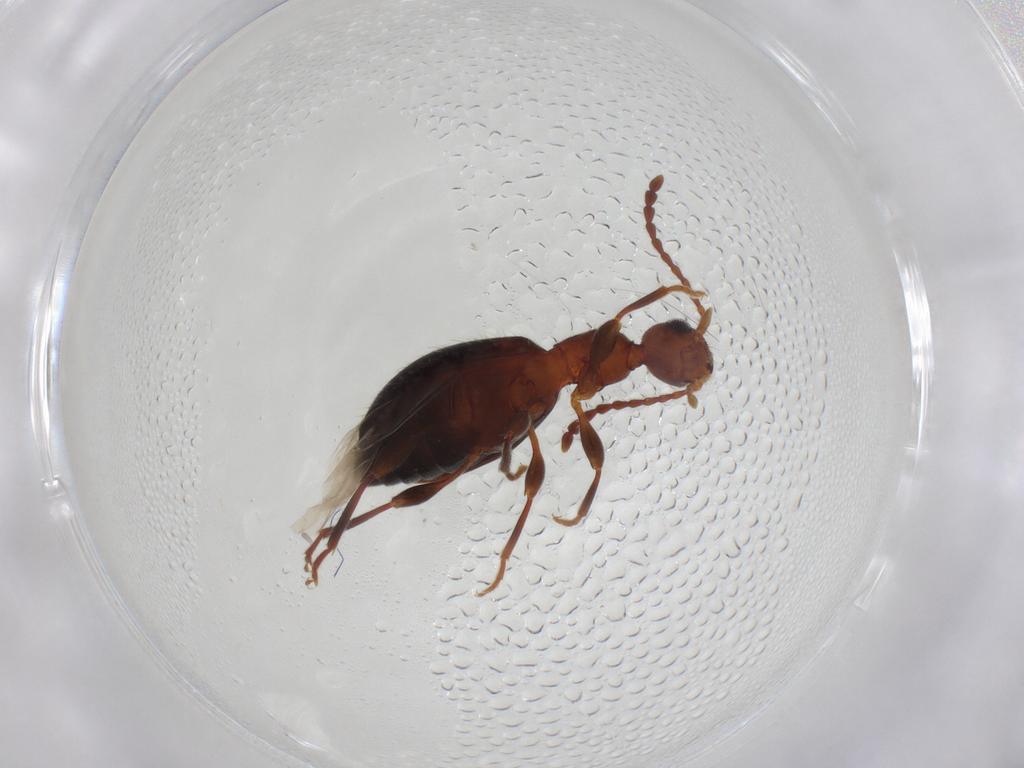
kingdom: Animalia
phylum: Arthropoda
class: Insecta
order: Coleoptera
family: Anthicidae
